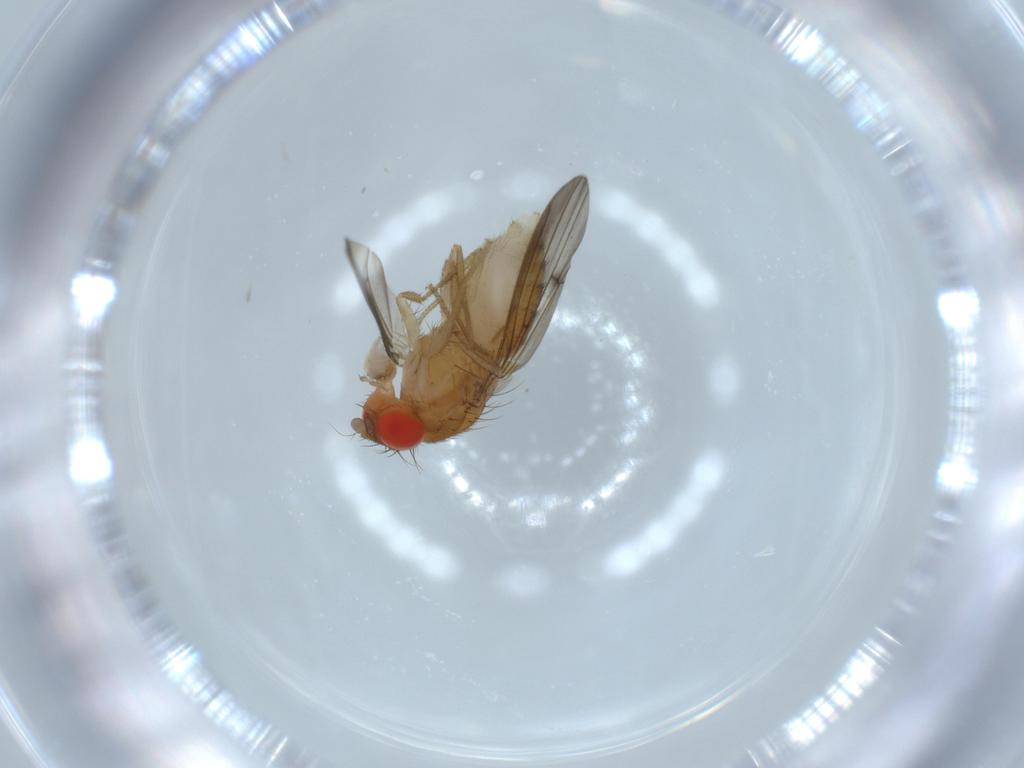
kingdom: Animalia
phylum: Arthropoda
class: Insecta
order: Diptera
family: Drosophilidae
